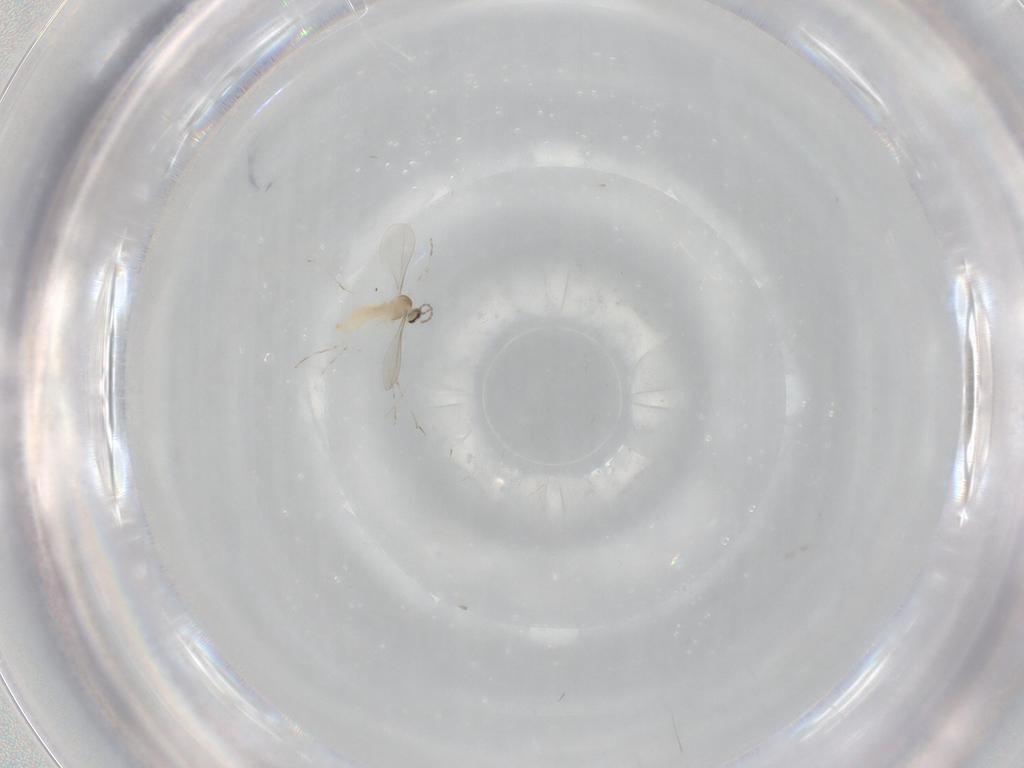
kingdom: Animalia
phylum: Arthropoda
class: Insecta
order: Diptera
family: Cecidomyiidae
